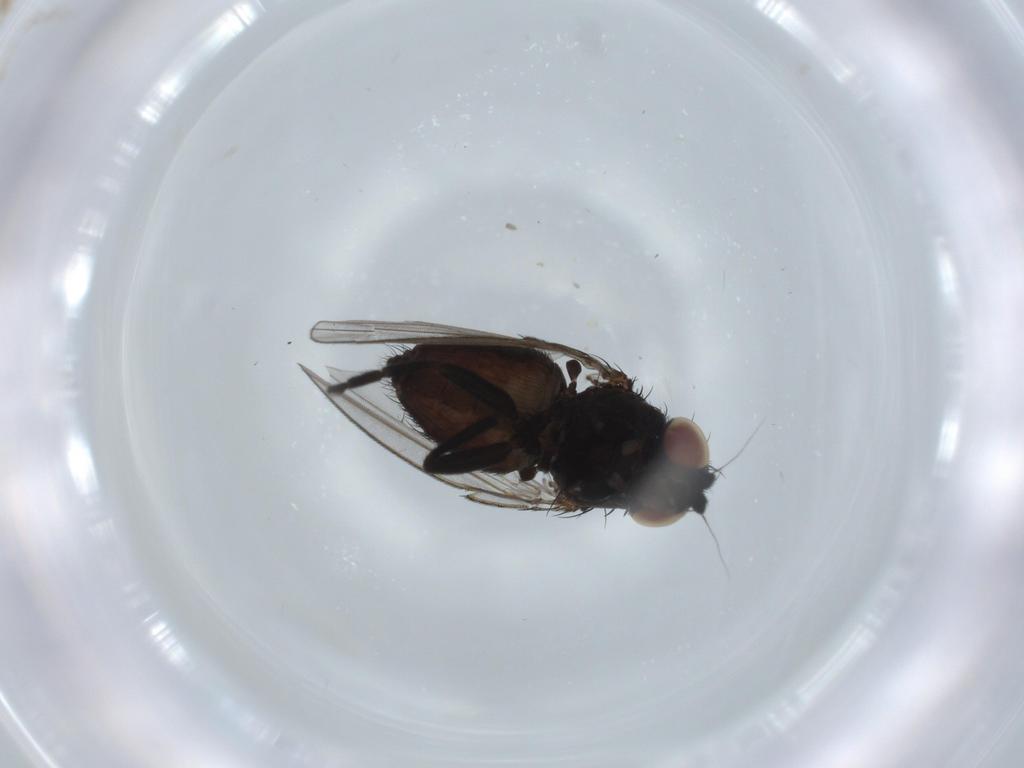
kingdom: Animalia
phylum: Arthropoda
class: Insecta
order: Diptera
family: Milichiidae
